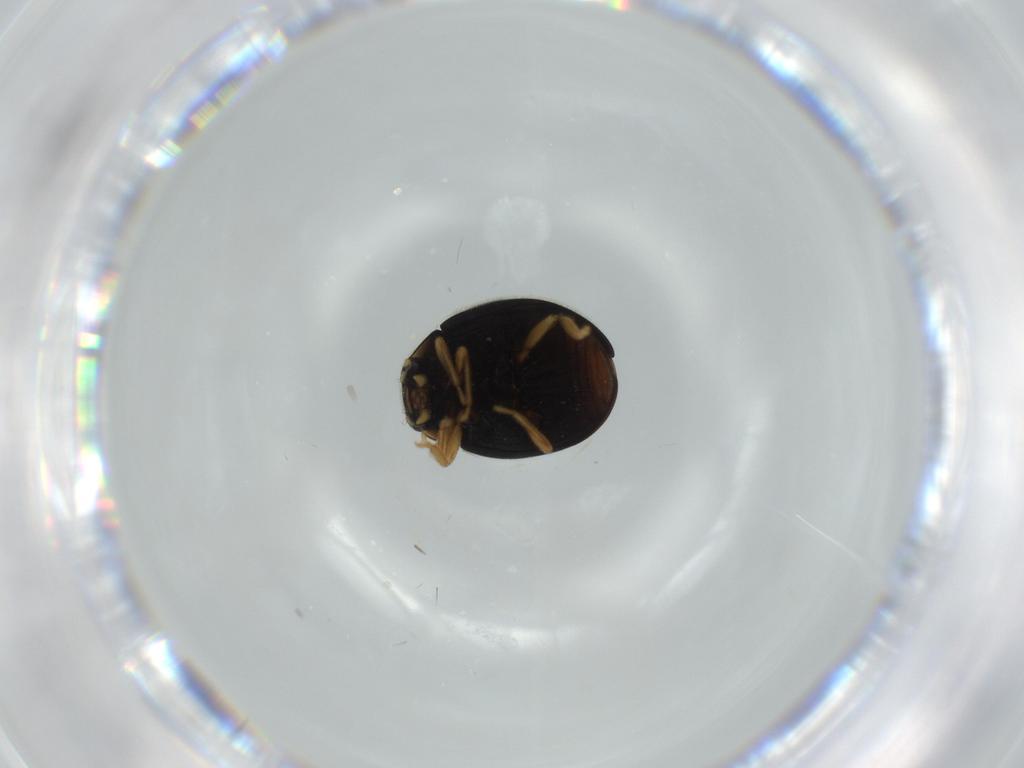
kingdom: Animalia
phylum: Arthropoda
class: Insecta
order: Coleoptera
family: Coccinellidae
